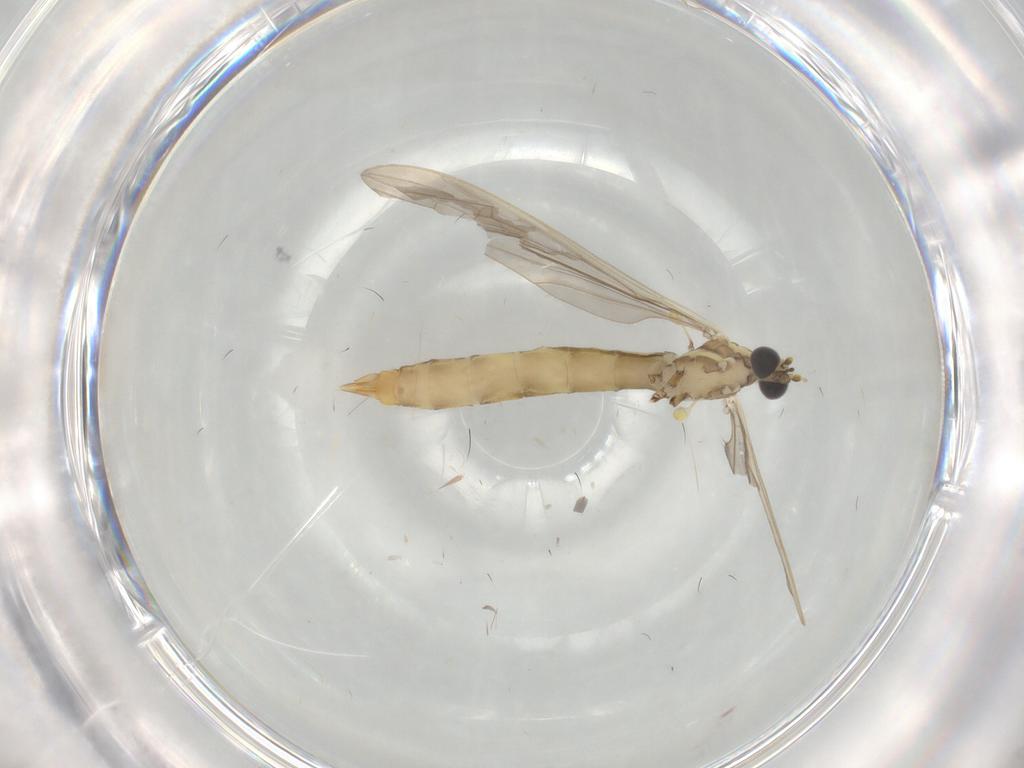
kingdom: Animalia
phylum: Arthropoda
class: Insecta
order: Diptera
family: Limoniidae
